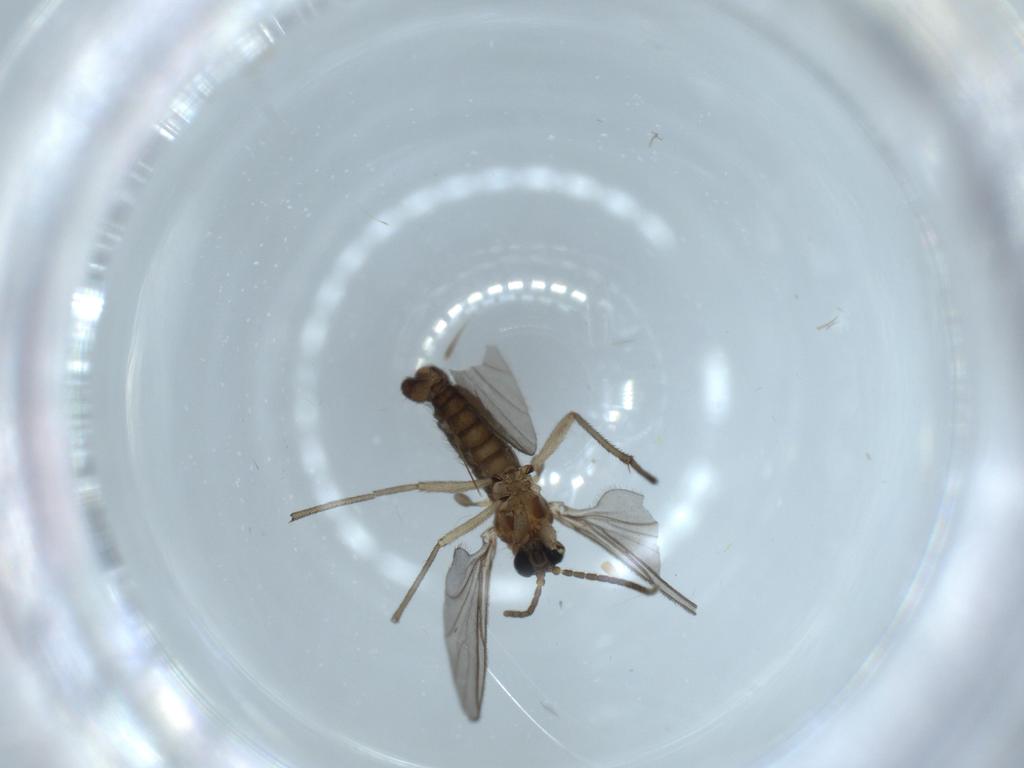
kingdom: Animalia
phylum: Arthropoda
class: Insecta
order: Diptera
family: Sciaridae
